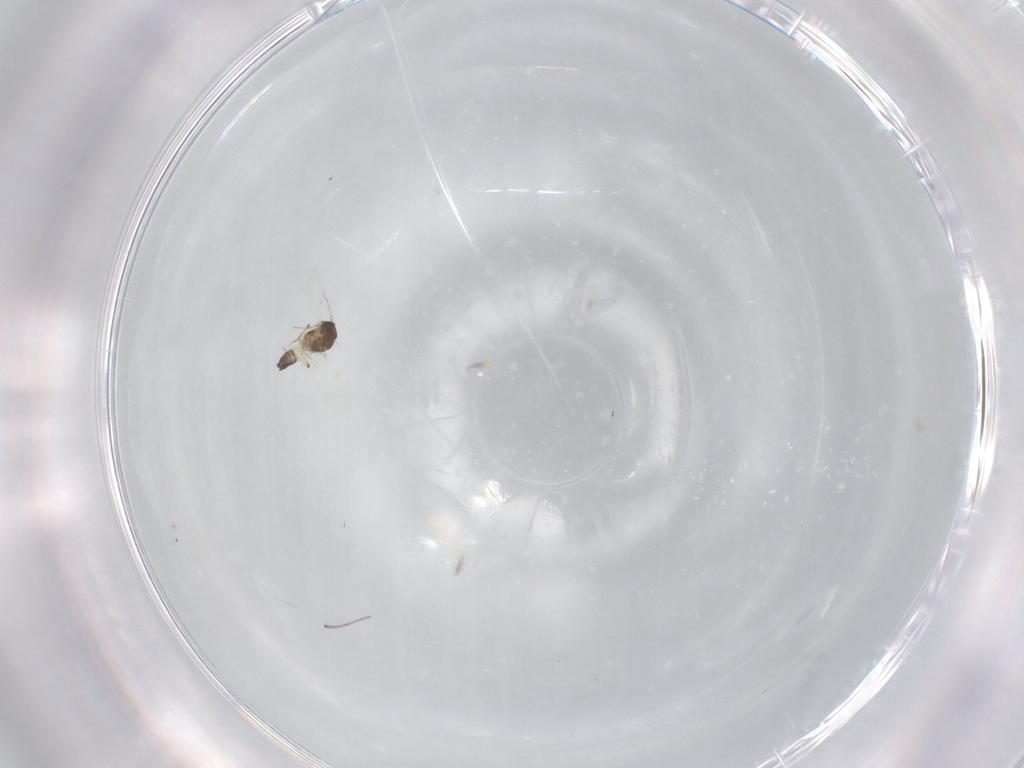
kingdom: Animalia
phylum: Arthropoda
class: Insecta
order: Diptera
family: Ceratopogonidae
